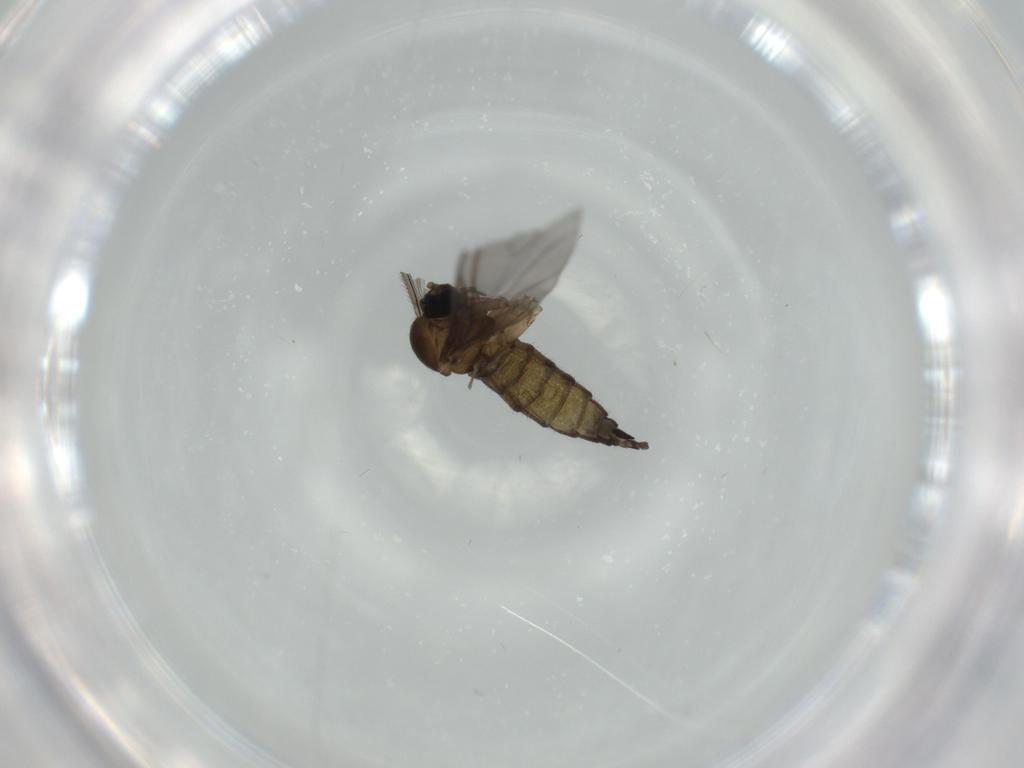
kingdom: Animalia
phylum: Arthropoda
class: Insecta
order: Diptera
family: Sciaridae
